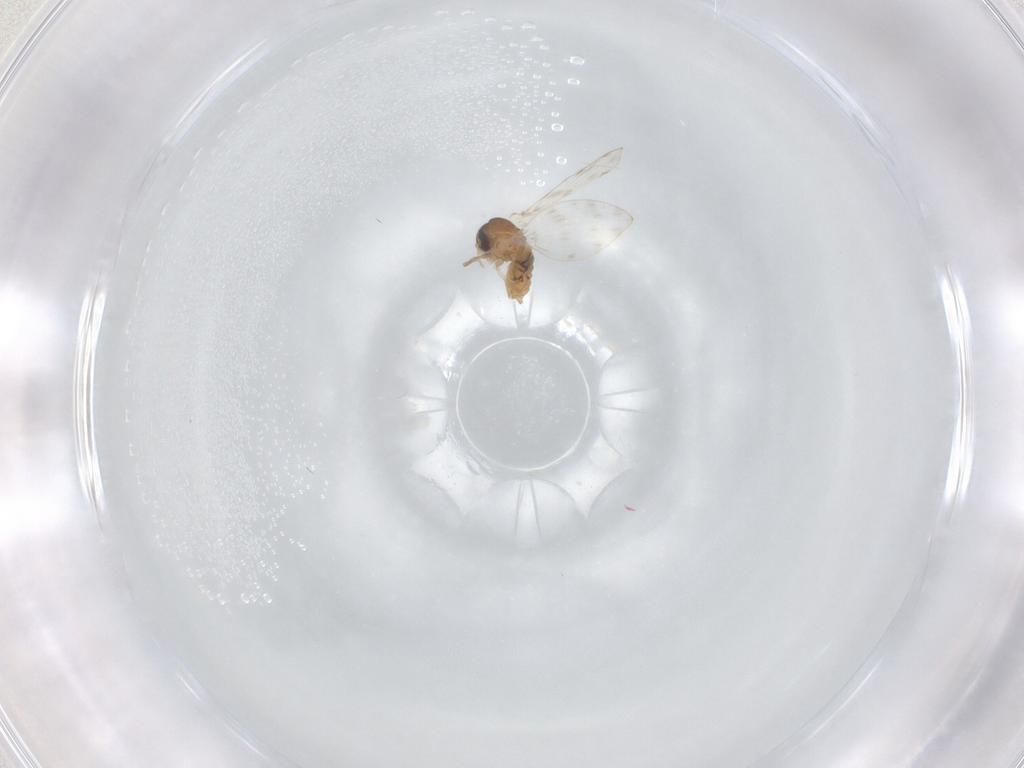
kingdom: Animalia
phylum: Arthropoda
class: Insecta
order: Diptera
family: Psychodidae
